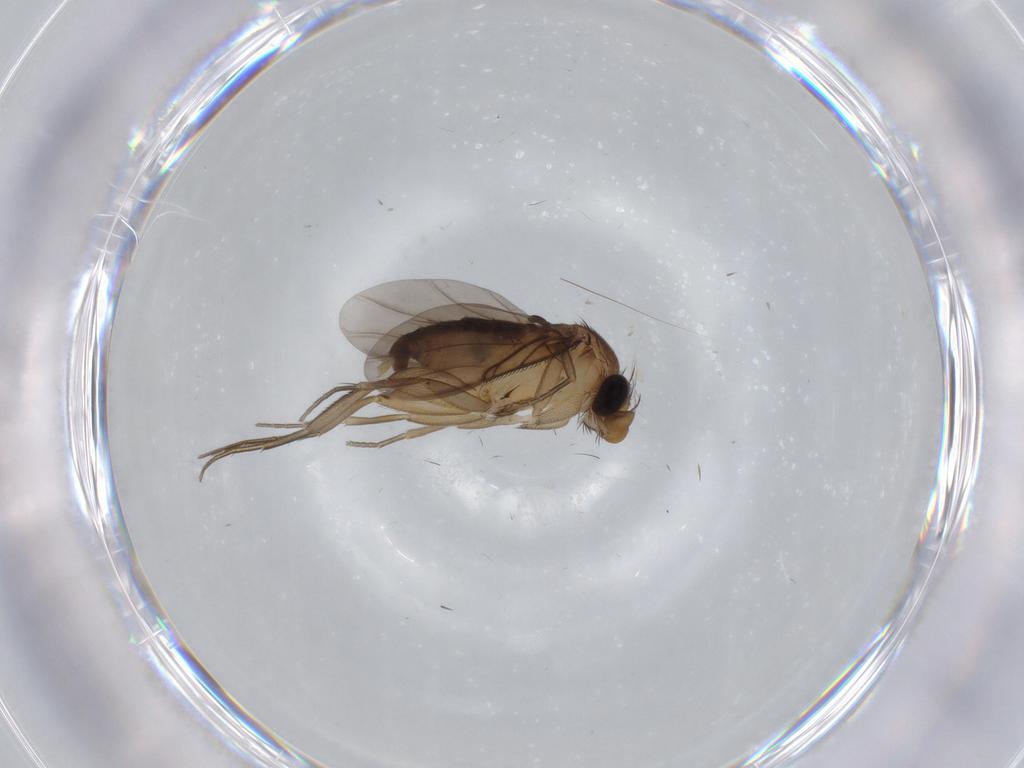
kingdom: Animalia
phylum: Arthropoda
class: Insecta
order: Diptera
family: Phoridae
